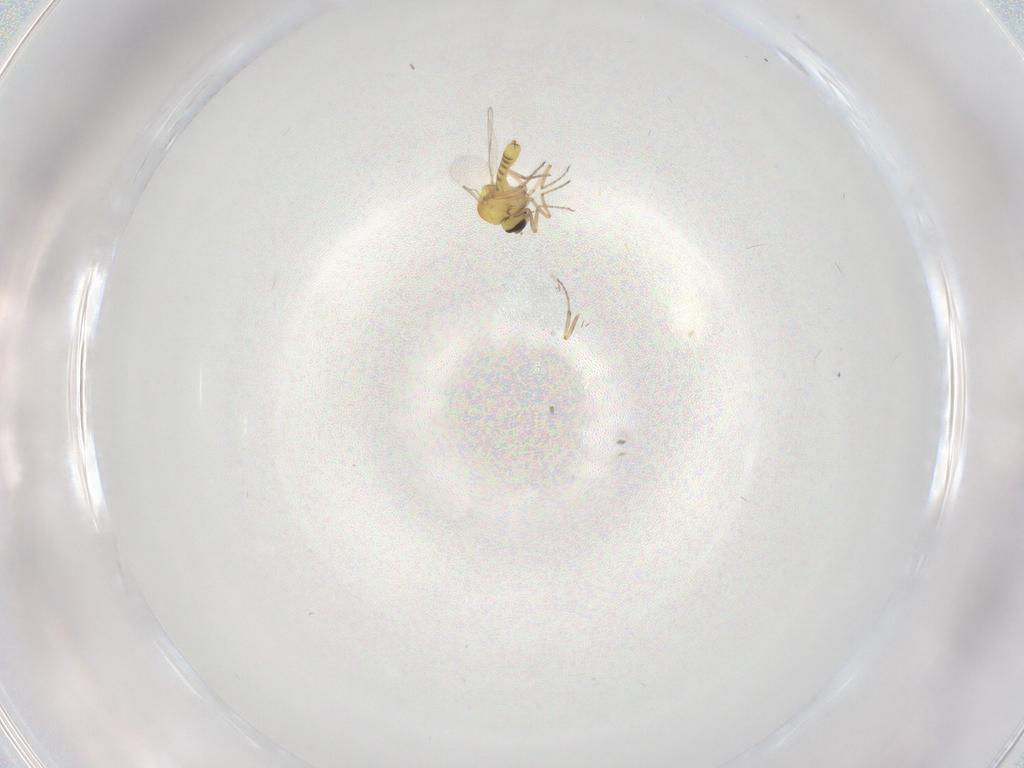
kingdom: Animalia
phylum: Arthropoda
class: Insecta
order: Diptera
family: Ceratopogonidae
